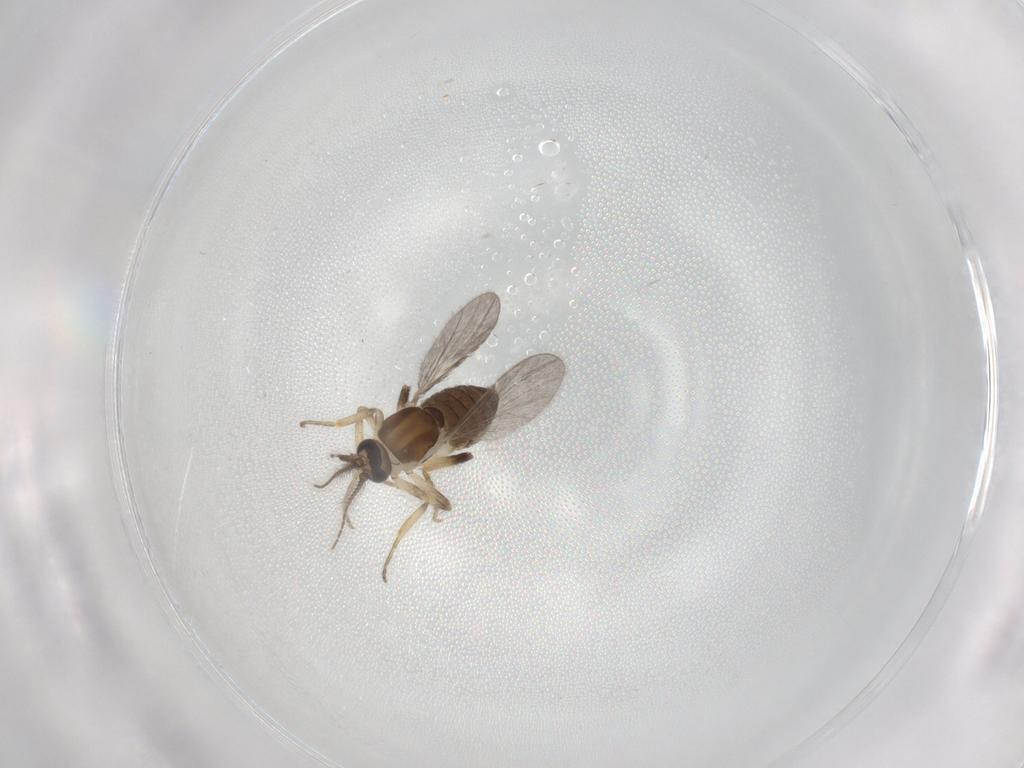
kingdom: Animalia
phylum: Arthropoda
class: Insecta
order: Diptera
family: Ceratopogonidae
